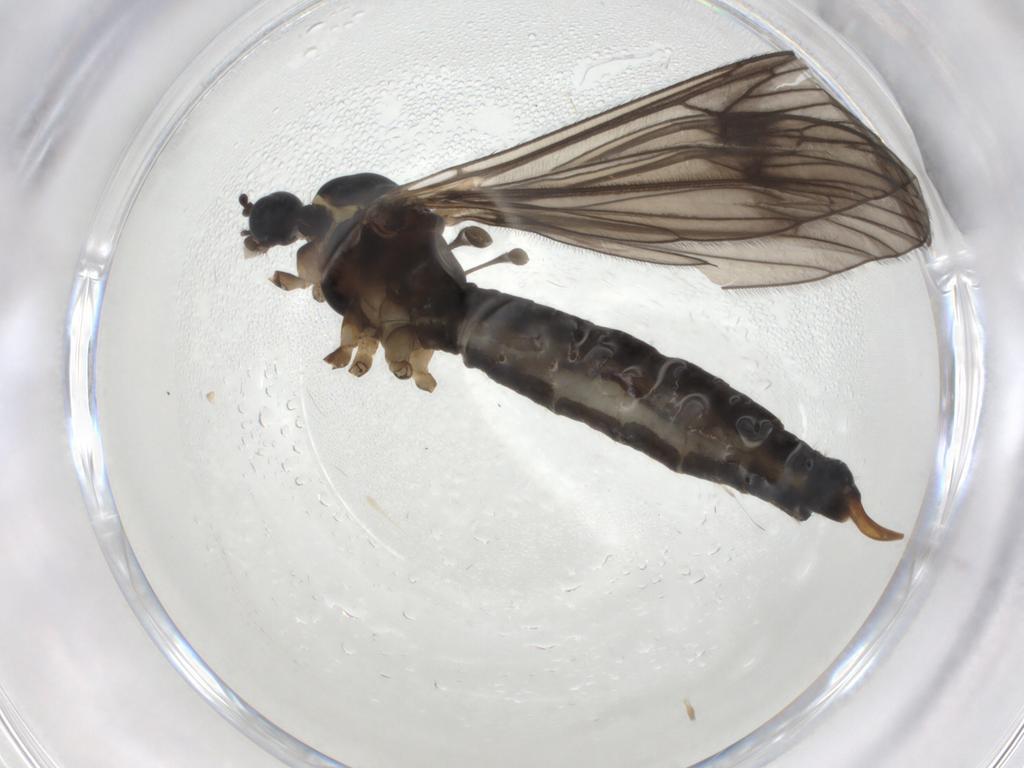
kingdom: Animalia
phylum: Arthropoda
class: Insecta
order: Diptera
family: Limoniidae
